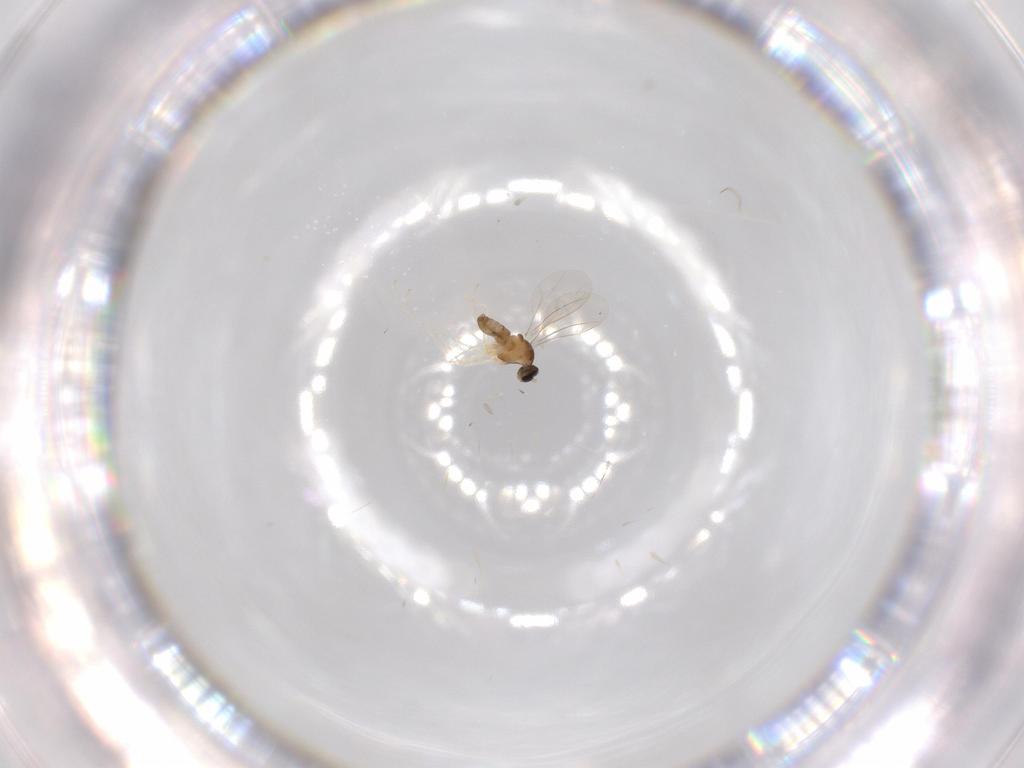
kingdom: Animalia
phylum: Arthropoda
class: Insecta
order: Diptera
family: Cecidomyiidae
